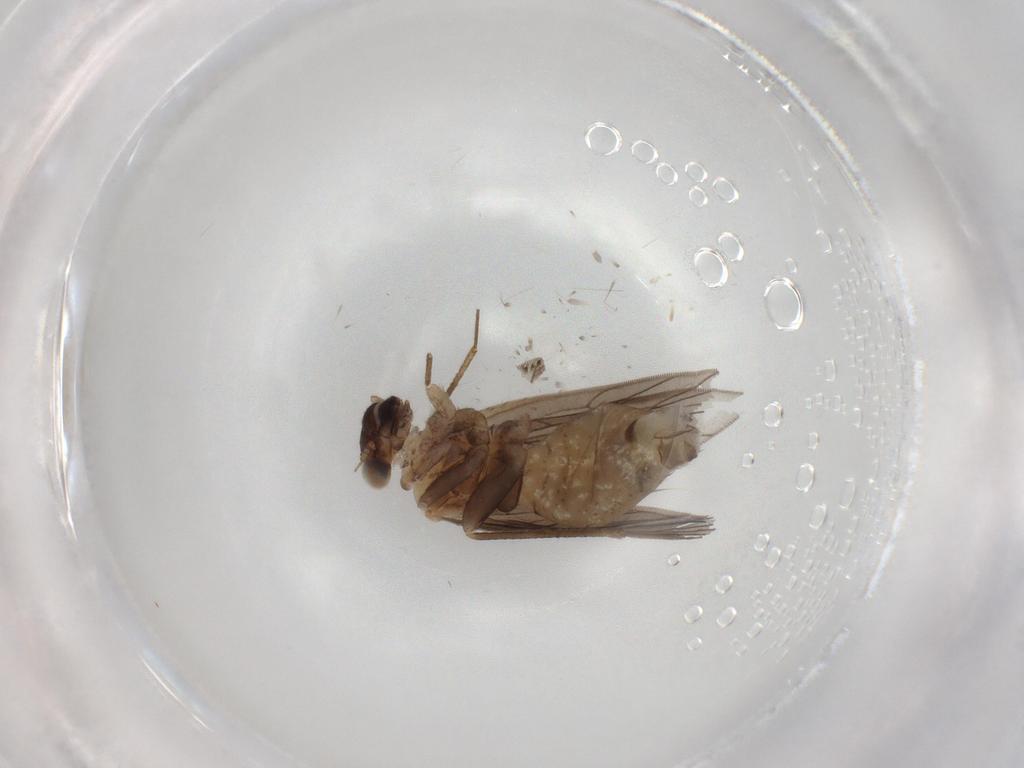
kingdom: Animalia
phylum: Arthropoda
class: Insecta
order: Psocodea
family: Lepidopsocidae
